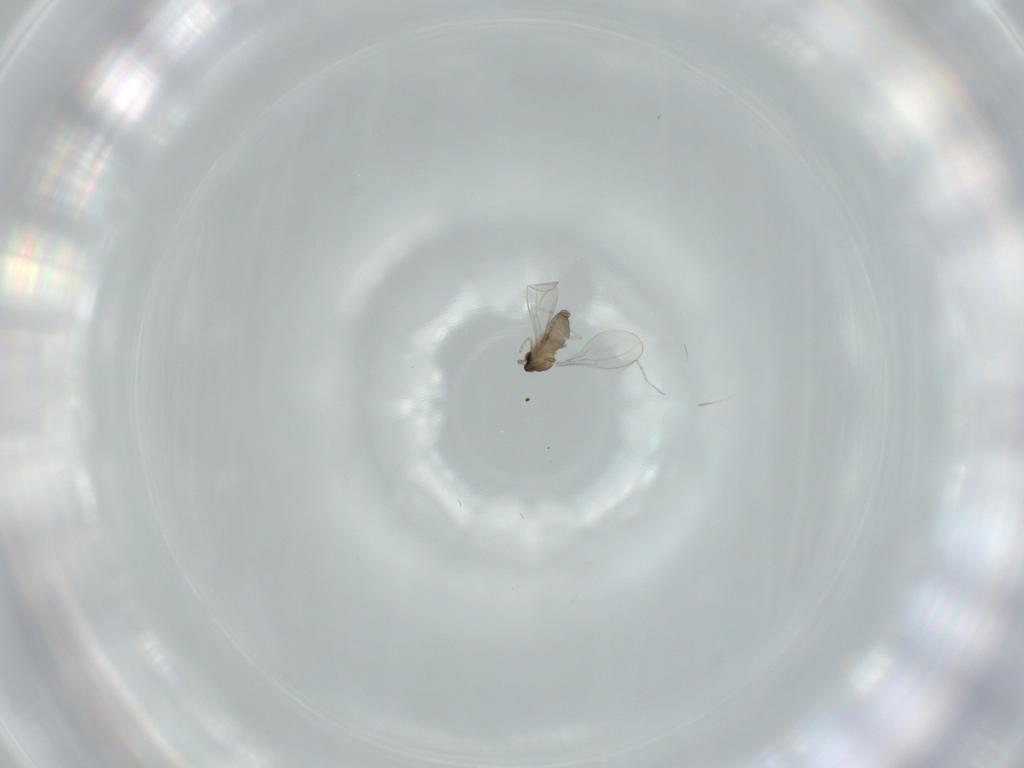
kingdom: Animalia
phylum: Arthropoda
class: Insecta
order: Diptera
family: Cecidomyiidae
